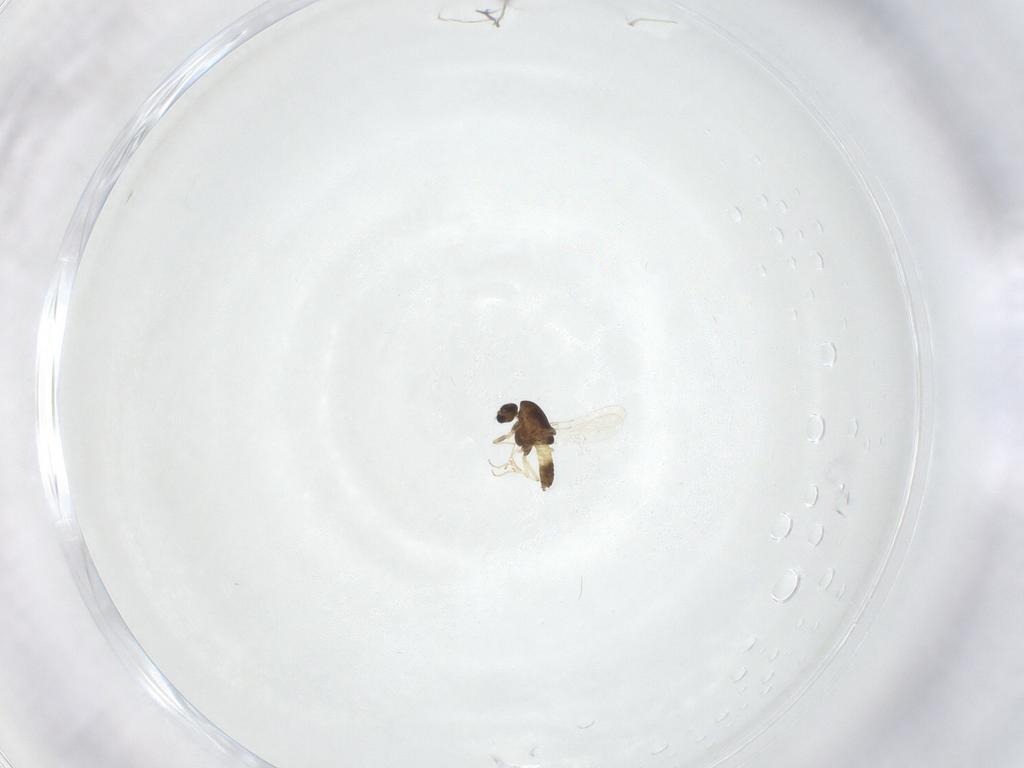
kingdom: Animalia
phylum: Arthropoda
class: Insecta
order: Diptera
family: Chironomidae
